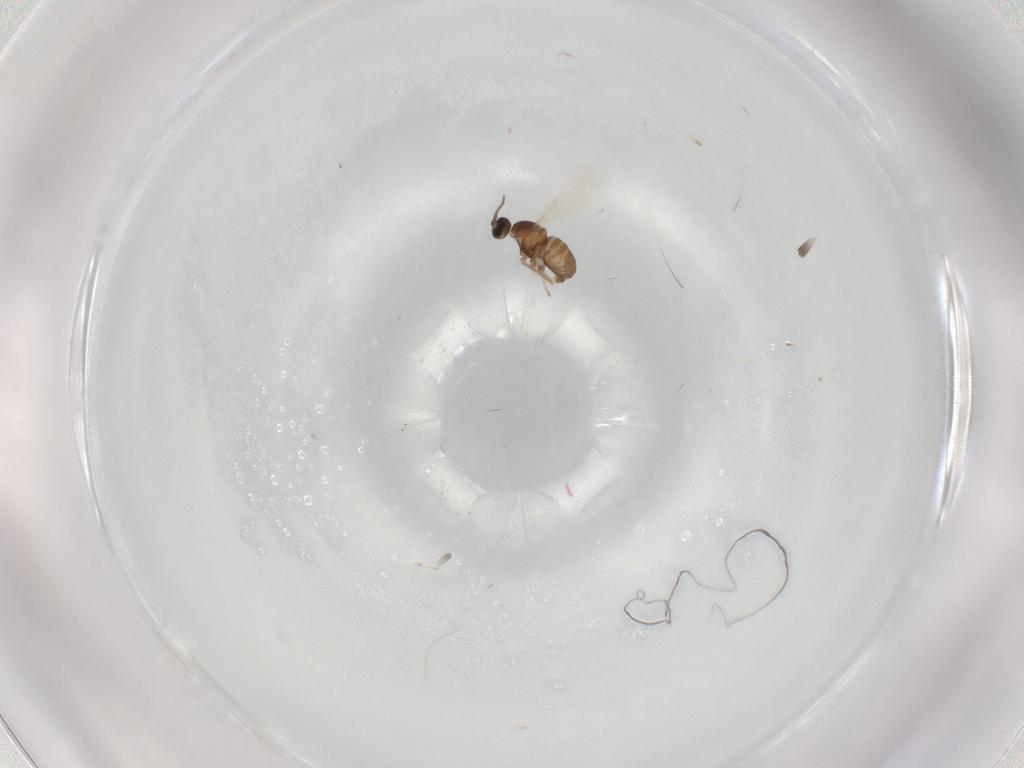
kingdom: Animalia
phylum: Arthropoda
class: Insecta
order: Diptera
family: Cecidomyiidae
